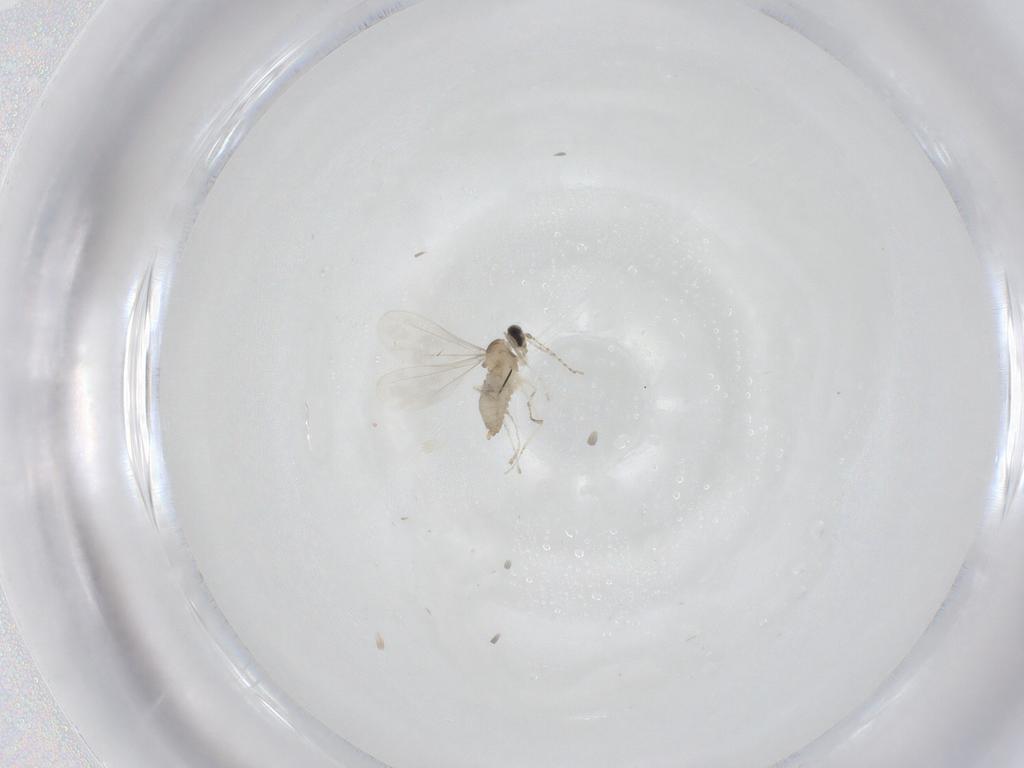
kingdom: Animalia
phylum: Arthropoda
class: Insecta
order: Diptera
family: Cecidomyiidae
